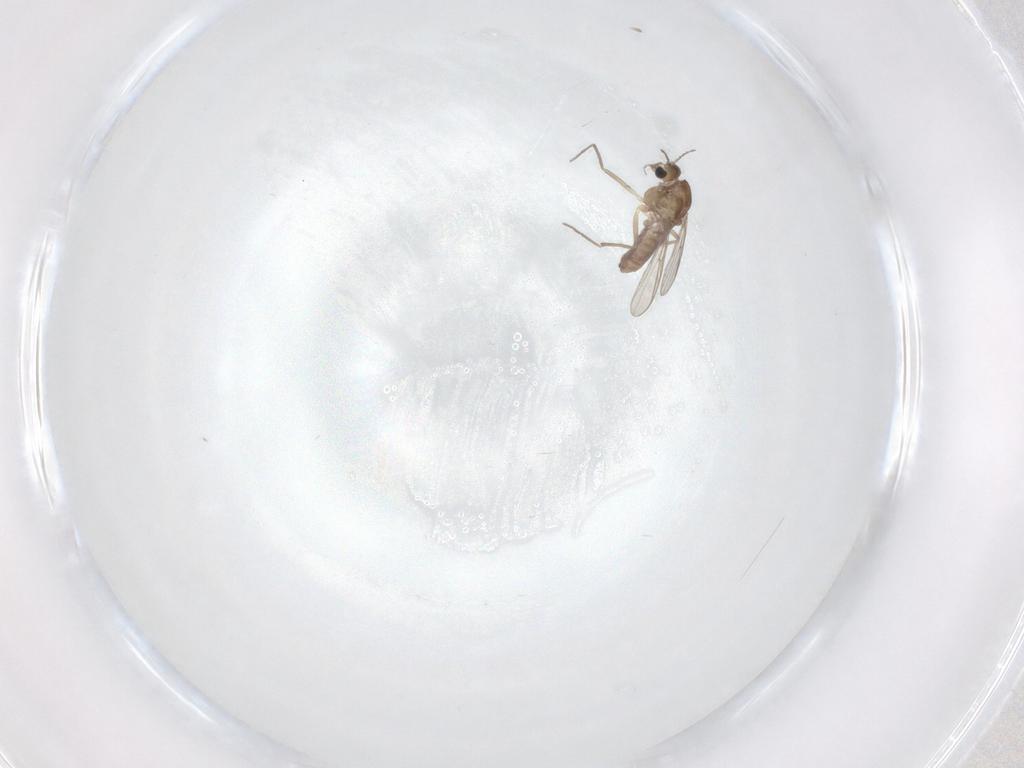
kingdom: Animalia
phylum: Arthropoda
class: Insecta
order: Diptera
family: Chironomidae
